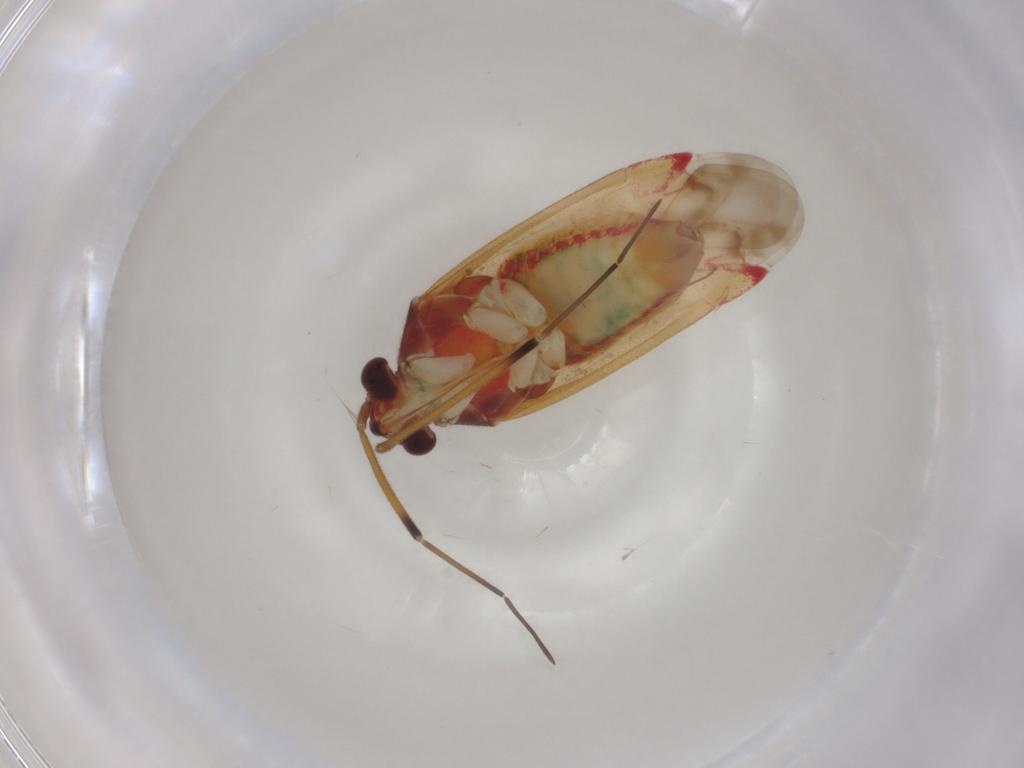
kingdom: Animalia
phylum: Arthropoda
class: Insecta
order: Hemiptera
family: Miridae
